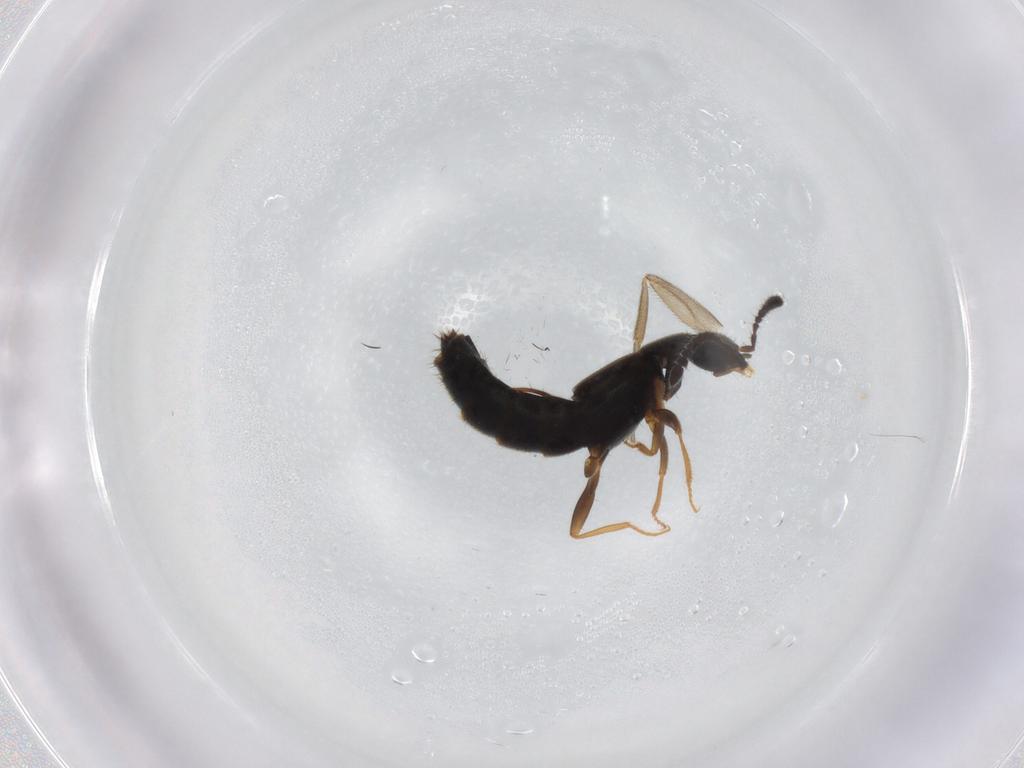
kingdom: Animalia
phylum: Arthropoda
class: Insecta
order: Coleoptera
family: Staphylinidae
